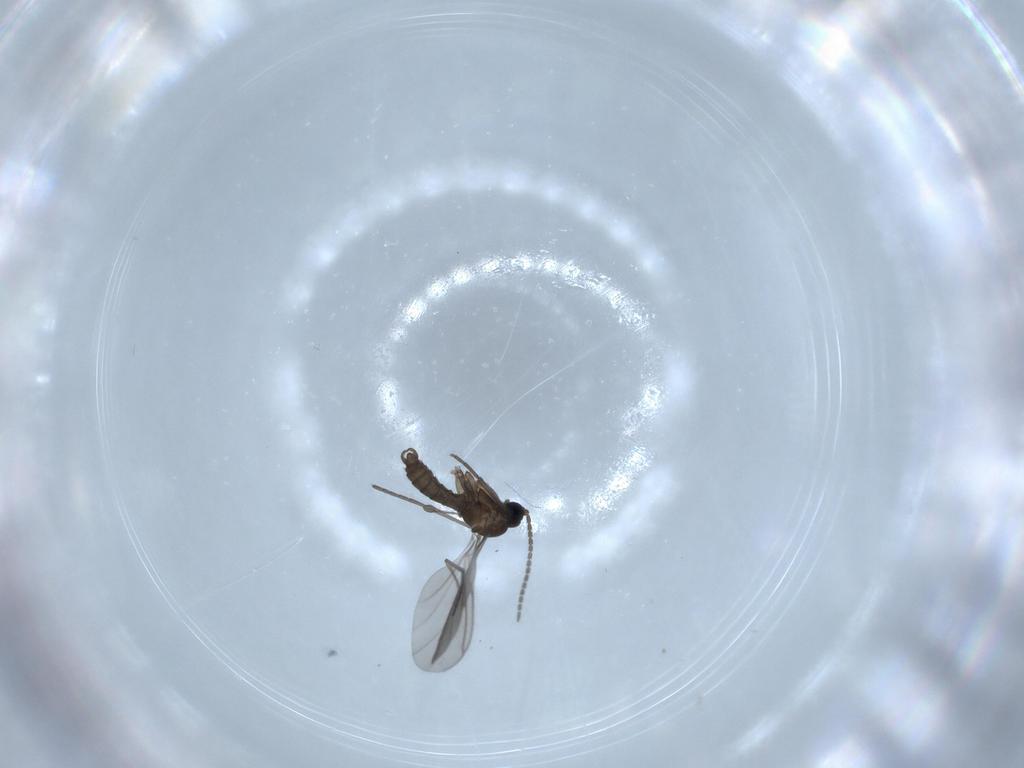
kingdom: Animalia
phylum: Arthropoda
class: Insecta
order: Diptera
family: Sciaridae
